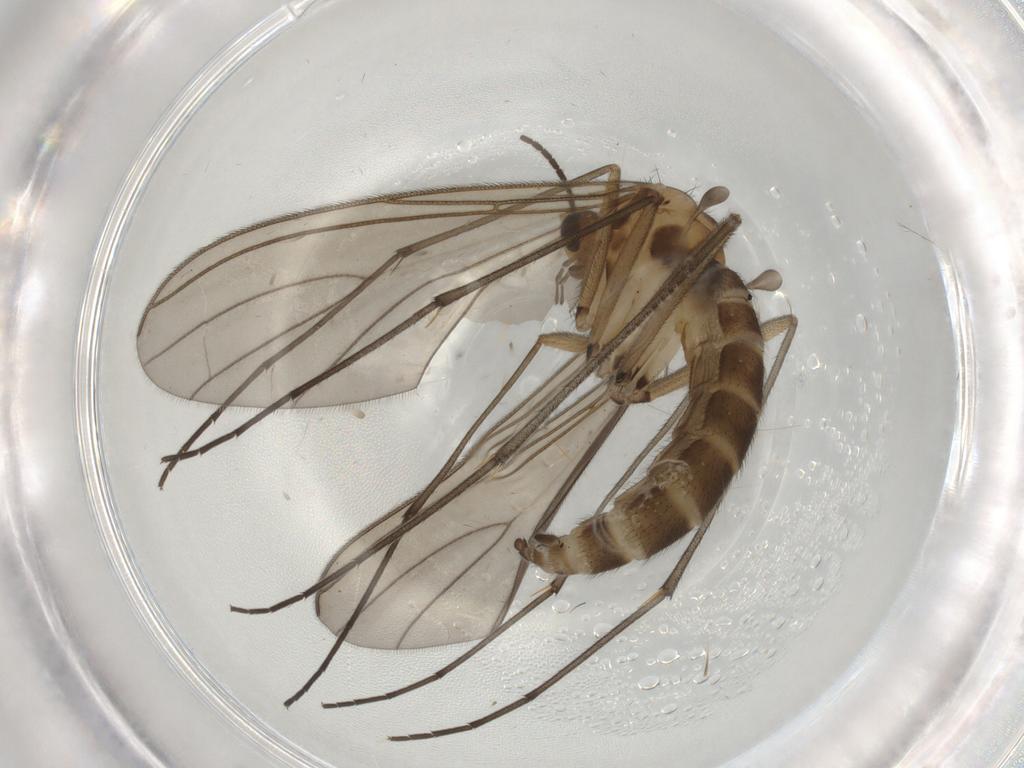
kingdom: Animalia
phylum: Arthropoda
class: Insecta
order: Diptera
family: Sciaridae
